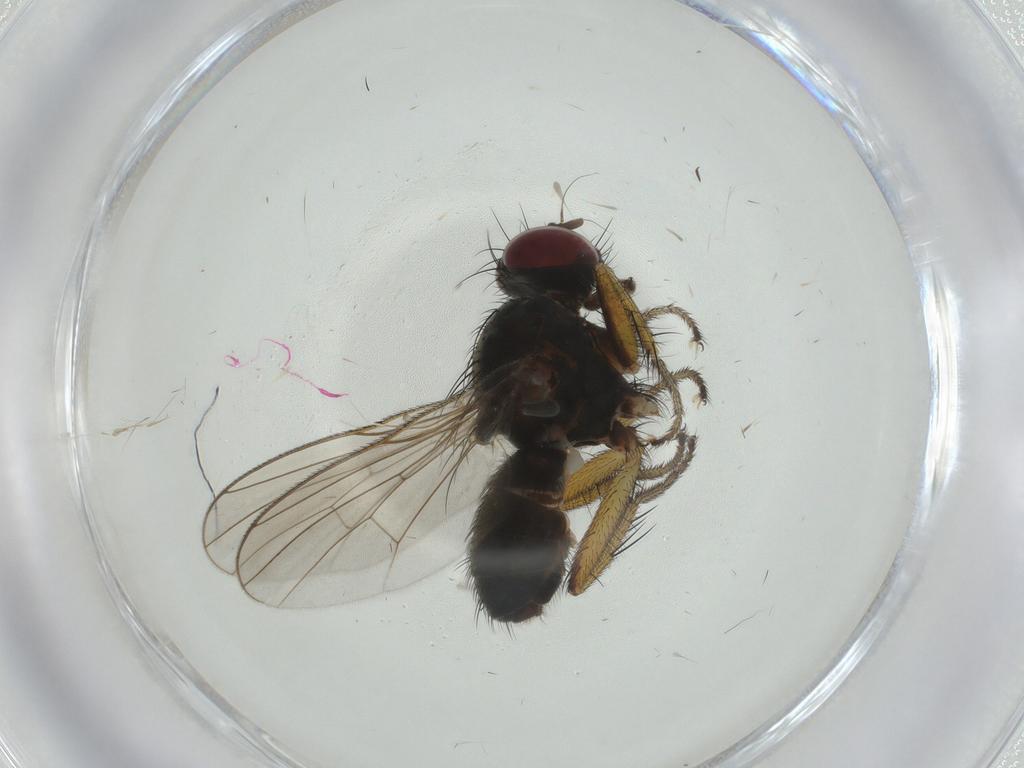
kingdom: Animalia
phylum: Arthropoda
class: Insecta
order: Diptera
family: Muscidae
